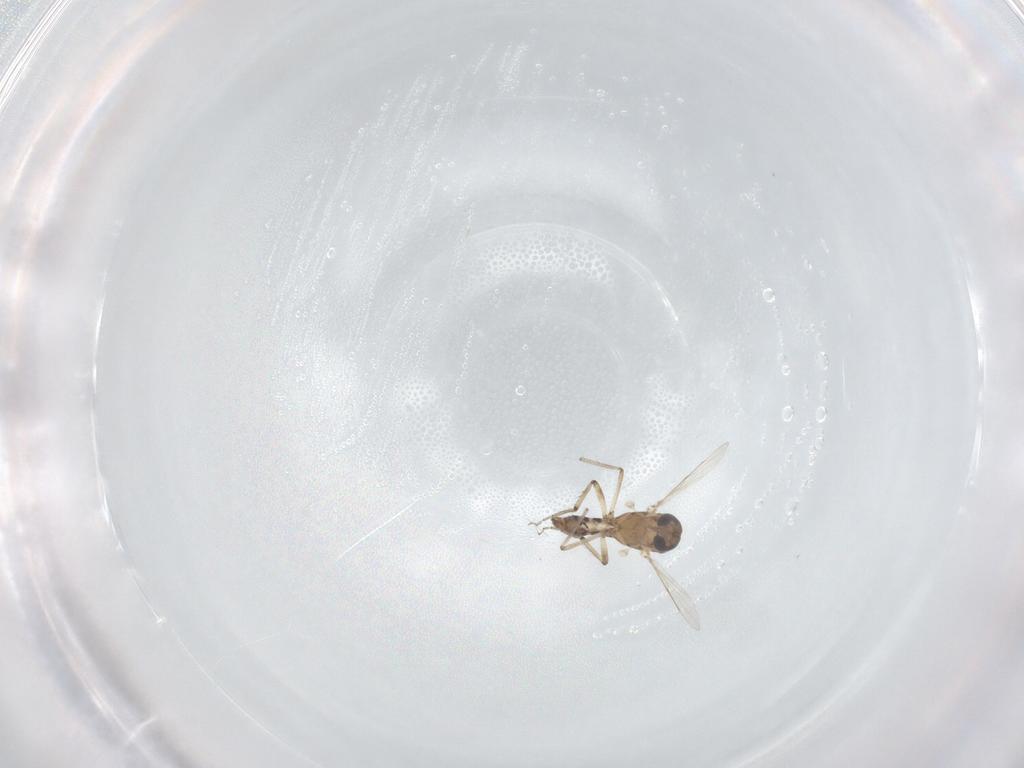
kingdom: Animalia
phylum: Arthropoda
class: Insecta
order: Diptera
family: Ceratopogonidae
